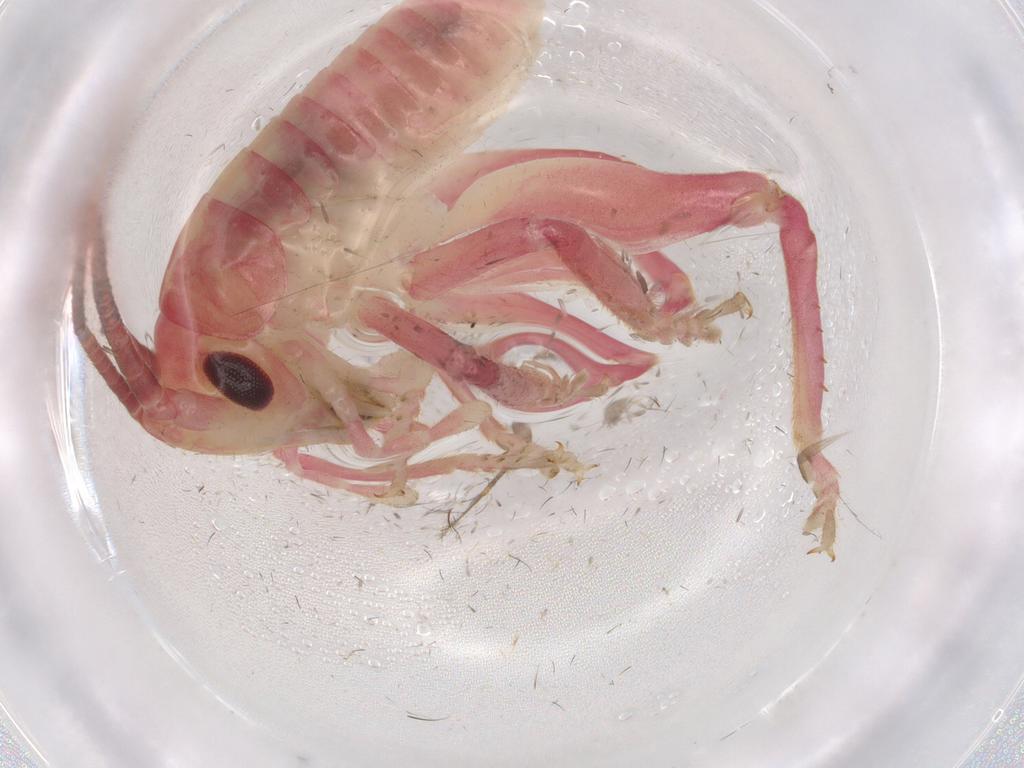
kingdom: Animalia
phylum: Arthropoda
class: Insecta
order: Orthoptera
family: Gryllacrididae
